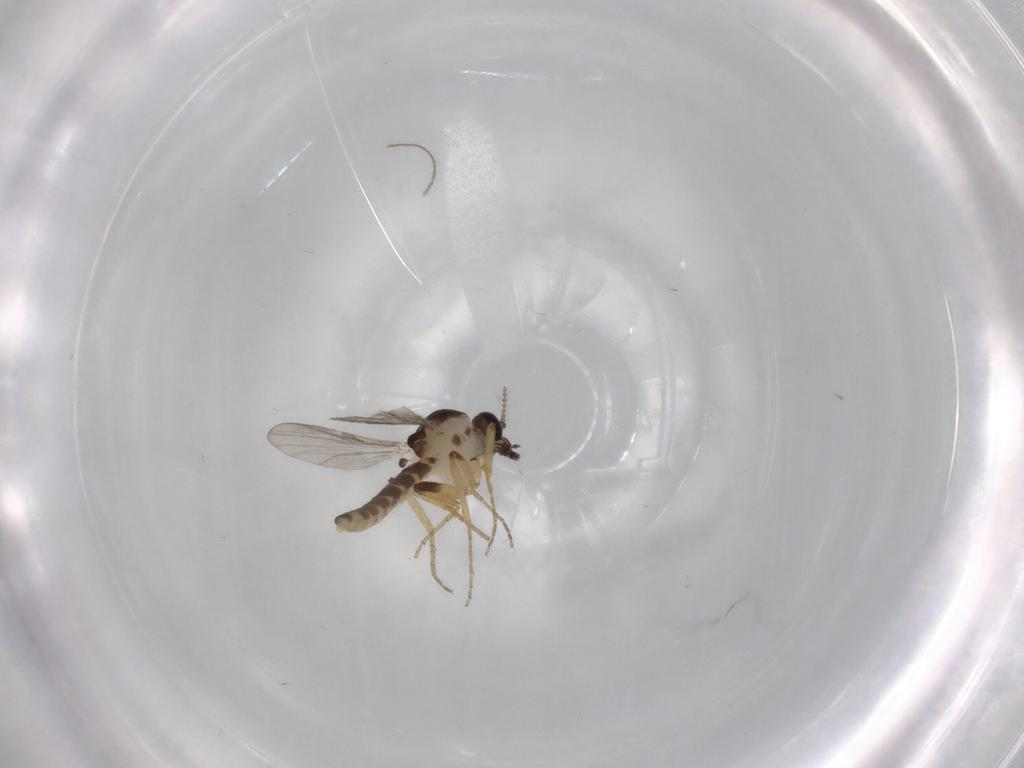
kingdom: Animalia
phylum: Arthropoda
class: Insecta
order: Diptera
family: Ceratopogonidae
